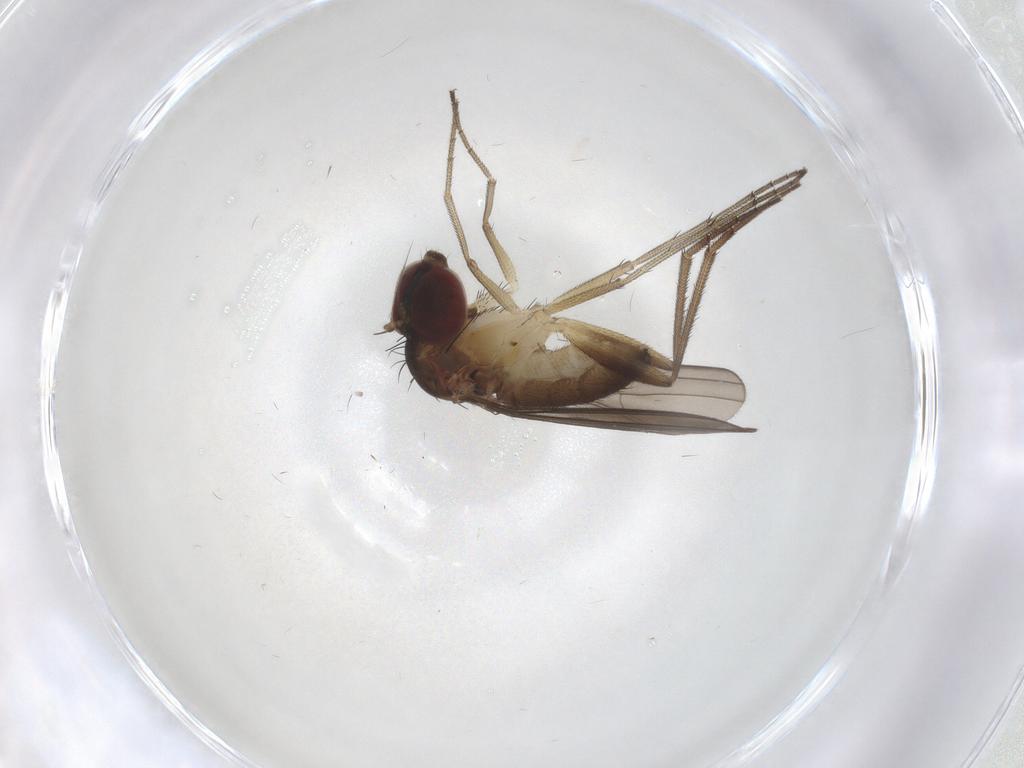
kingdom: Animalia
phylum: Arthropoda
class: Insecta
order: Diptera
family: Dolichopodidae
